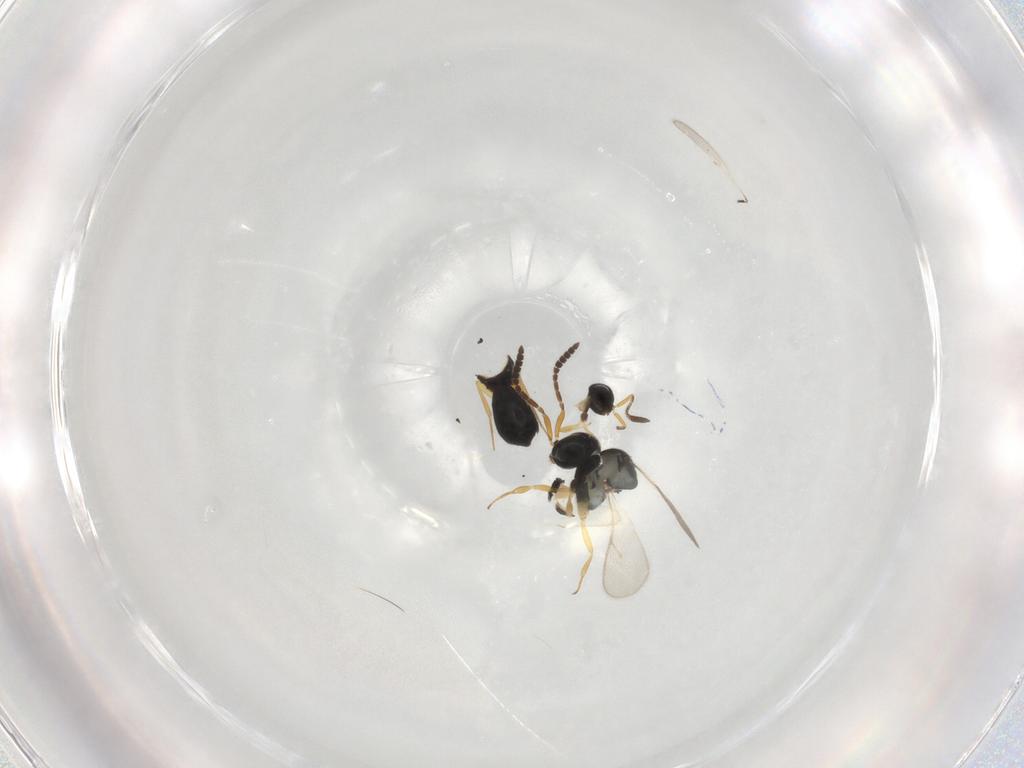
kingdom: Animalia
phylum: Arthropoda
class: Insecta
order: Hymenoptera
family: Scelionidae
